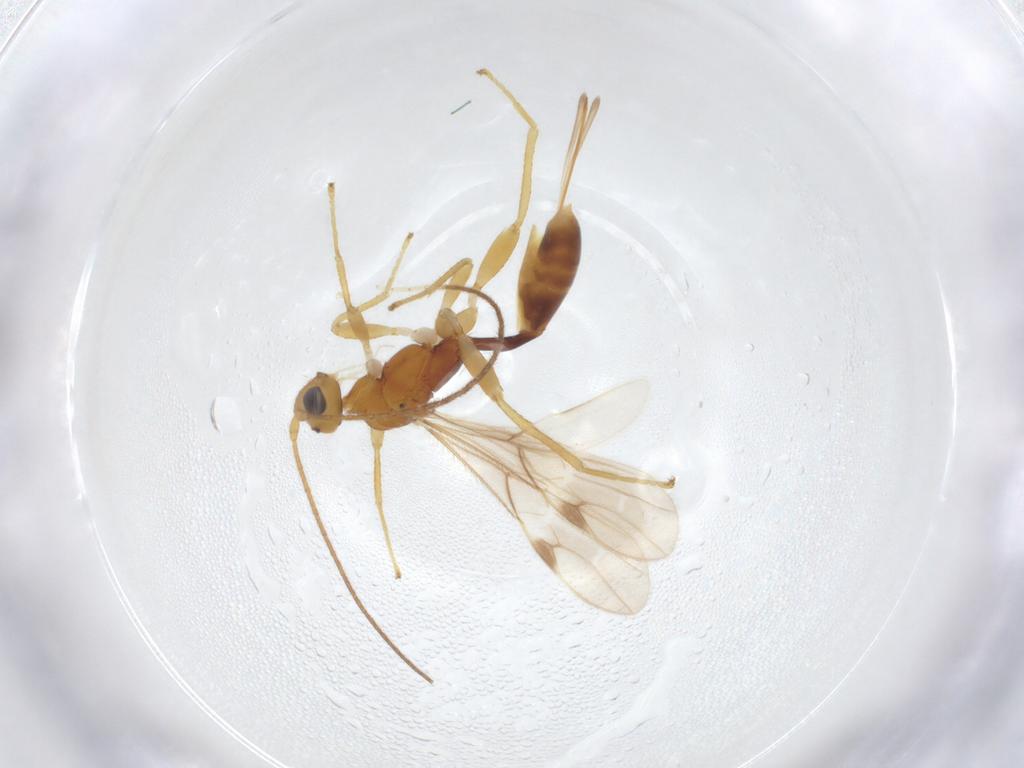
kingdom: Animalia
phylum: Arthropoda
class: Insecta
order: Hymenoptera
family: Braconidae
